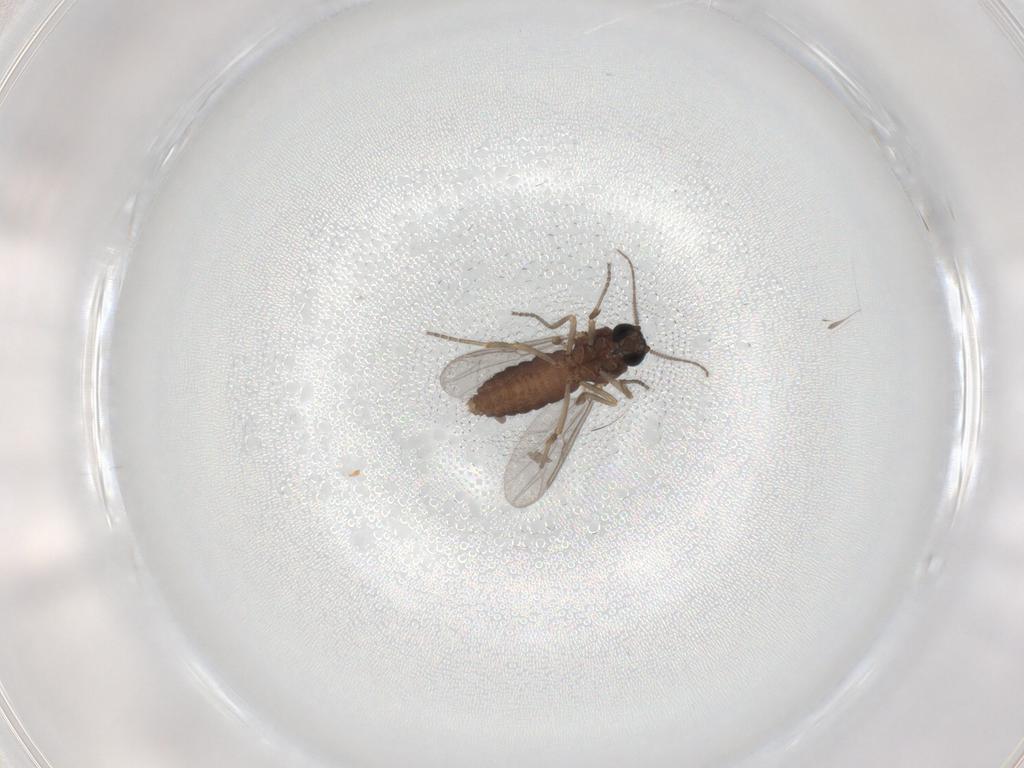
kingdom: Animalia
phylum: Arthropoda
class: Insecta
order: Diptera
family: Ceratopogonidae
